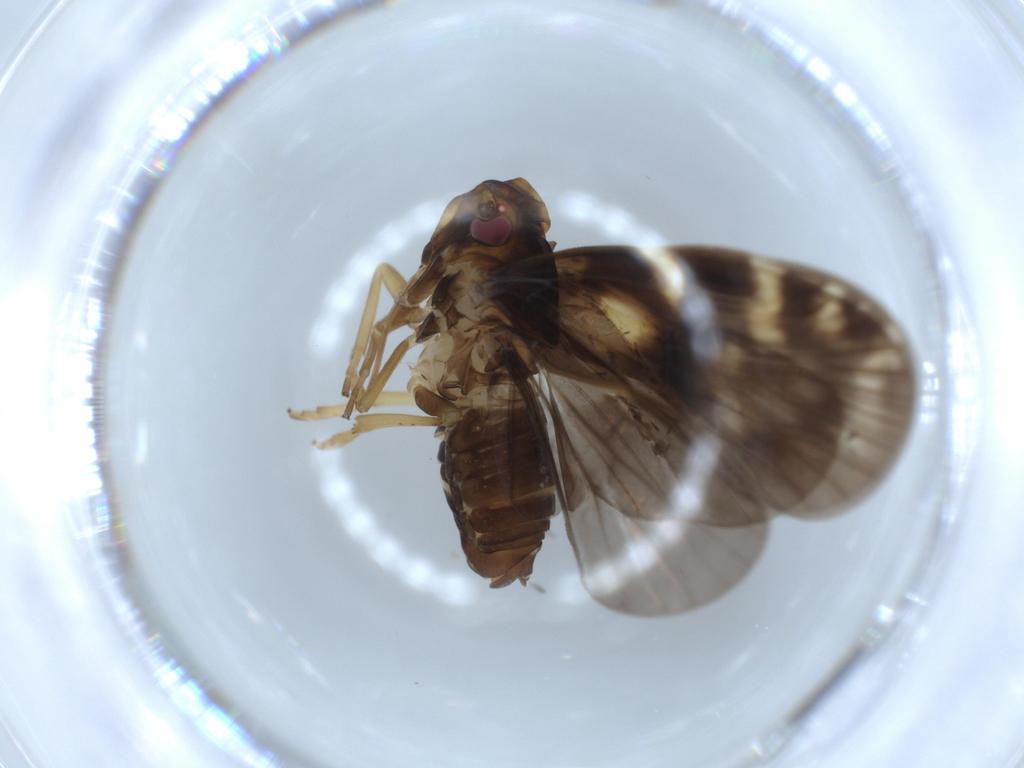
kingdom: Animalia
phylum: Arthropoda
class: Insecta
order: Hemiptera
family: Cixiidae
